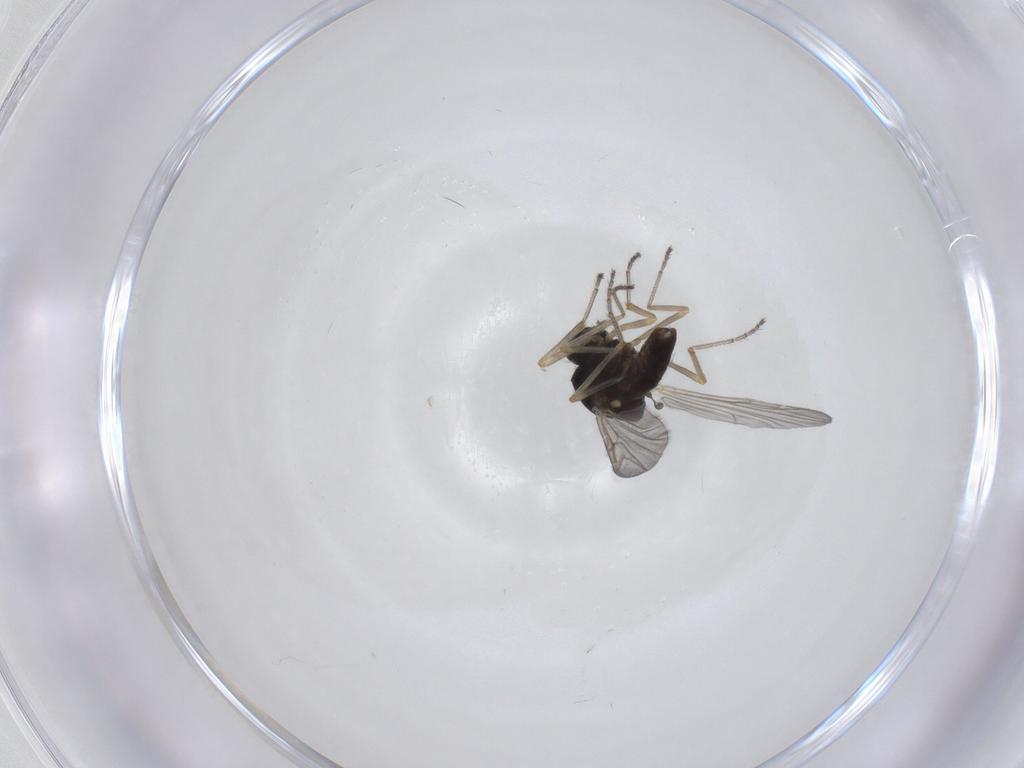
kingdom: Animalia
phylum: Arthropoda
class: Insecta
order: Diptera
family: Ceratopogonidae
